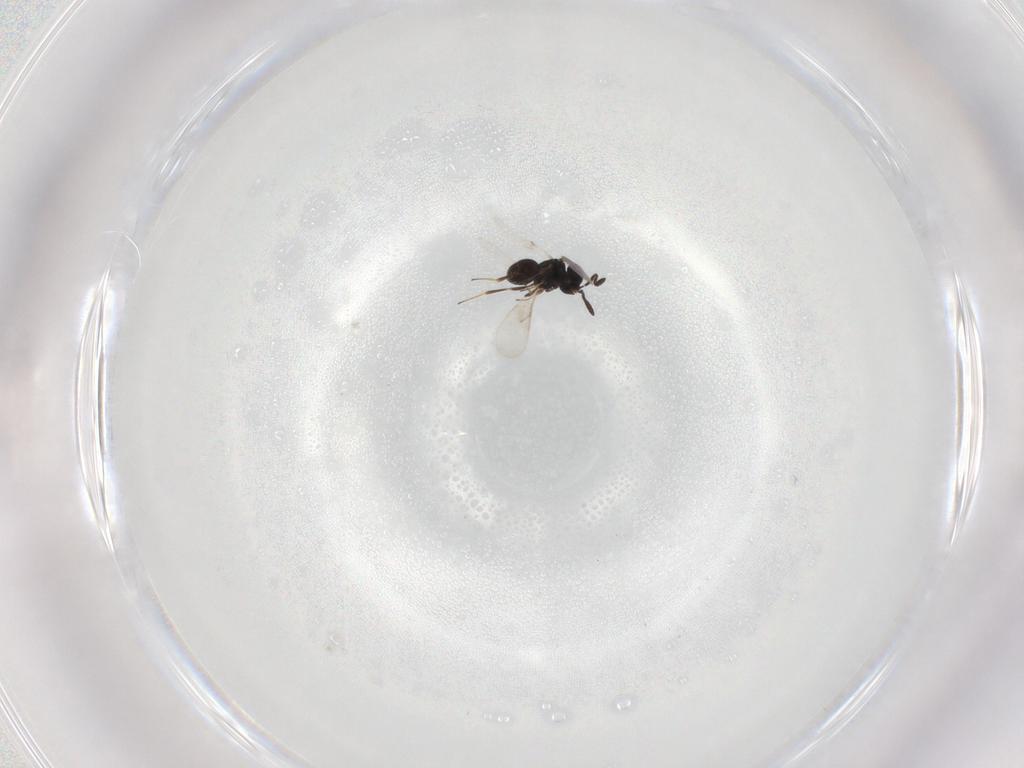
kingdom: Animalia
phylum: Arthropoda
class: Insecta
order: Hymenoptera
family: Scelionidae
